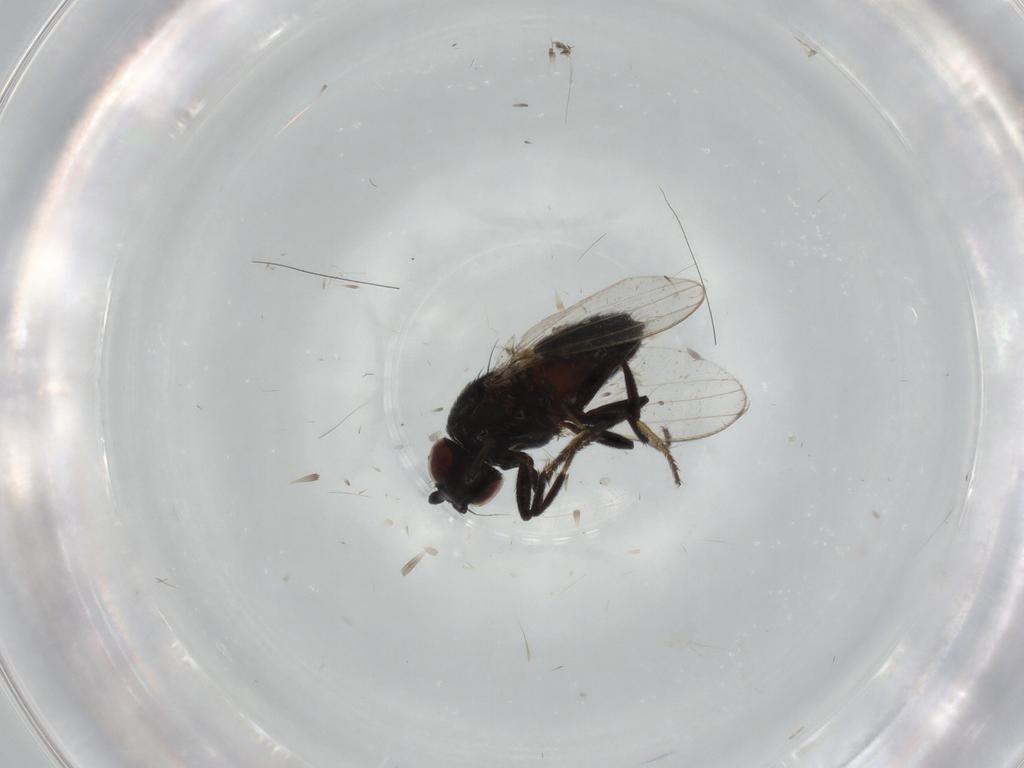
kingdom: Animalia
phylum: Arthropoda
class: Insecta
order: Diptera
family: Milichiidae
